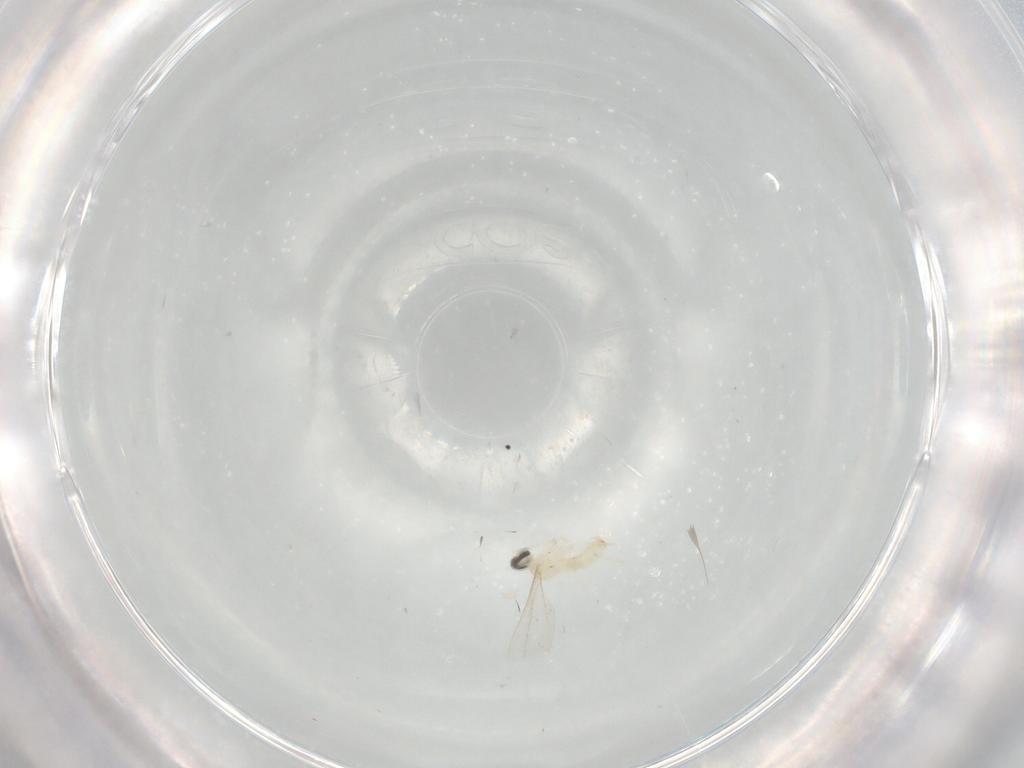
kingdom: Animalia
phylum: Arthropoda
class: Insecta
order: Diptera
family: Cecidomyiidae
